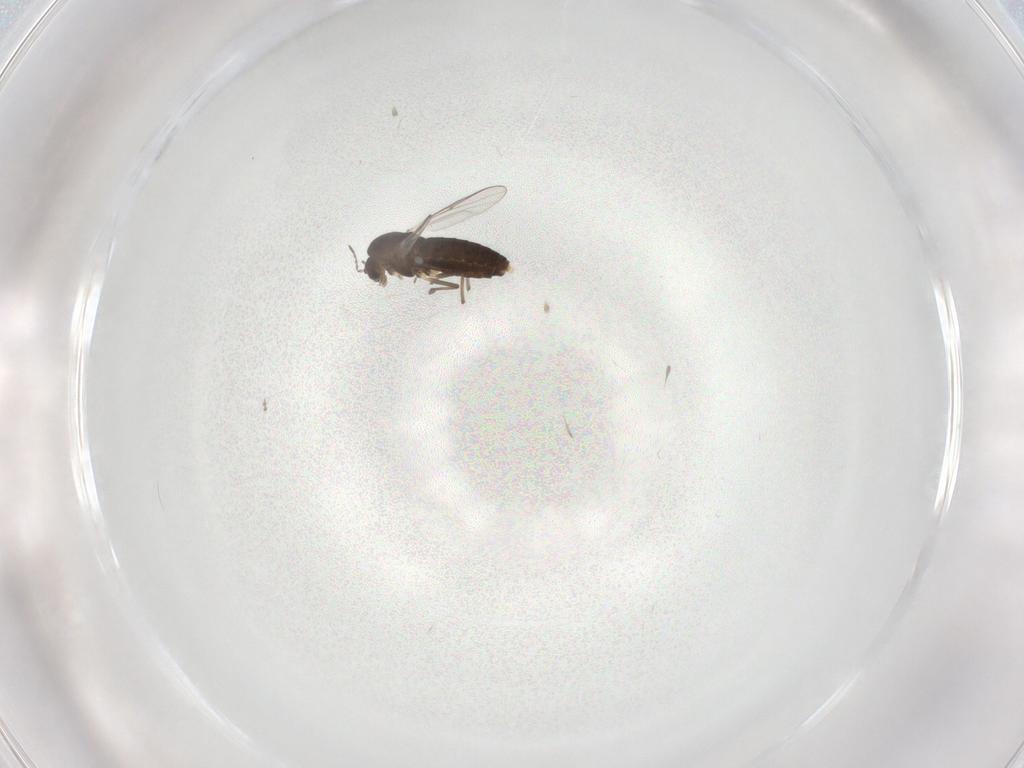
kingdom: Animalia
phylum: Arthropoda
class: Insecta
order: Diptera
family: Chironomidae
